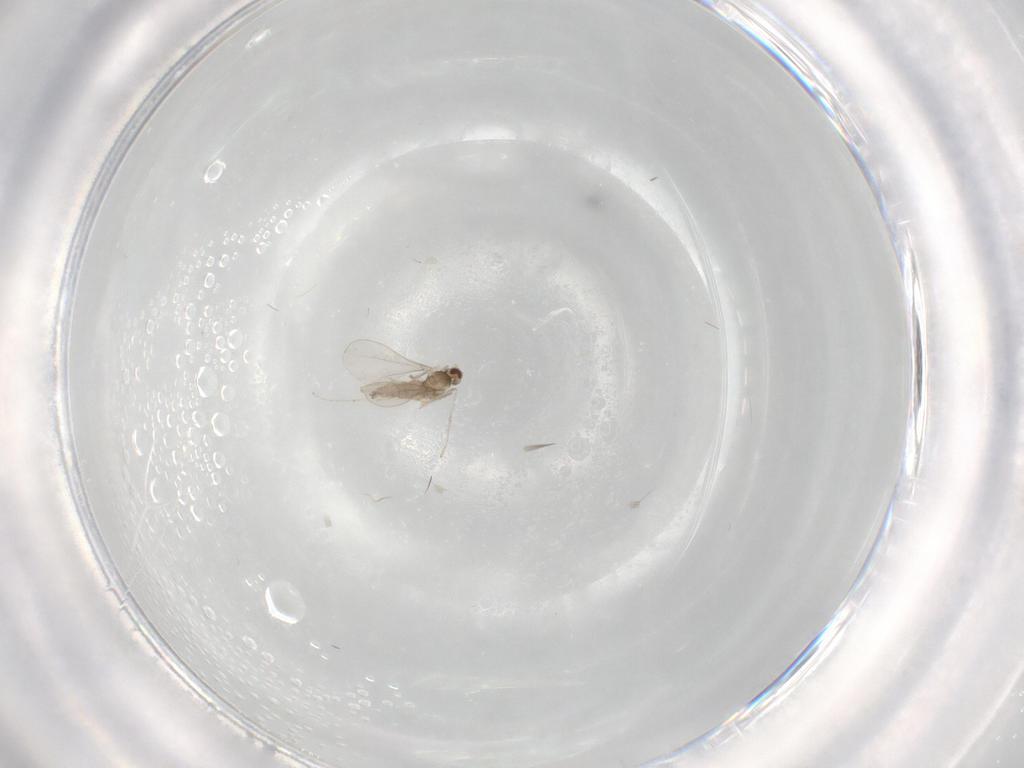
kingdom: Animalia
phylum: Arthropoda
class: Insecta
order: Diptera
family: Cecidomyiidae
